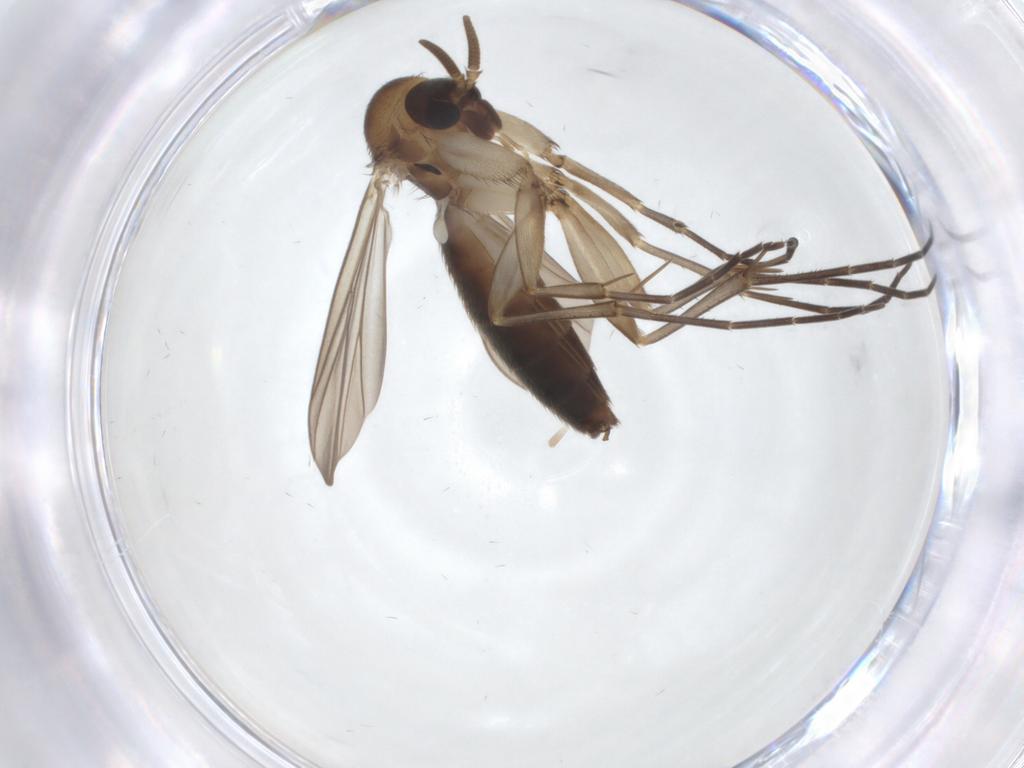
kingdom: Animalia
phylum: Arthropoda
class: Insecta
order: Diptera
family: Mycetophilidae
